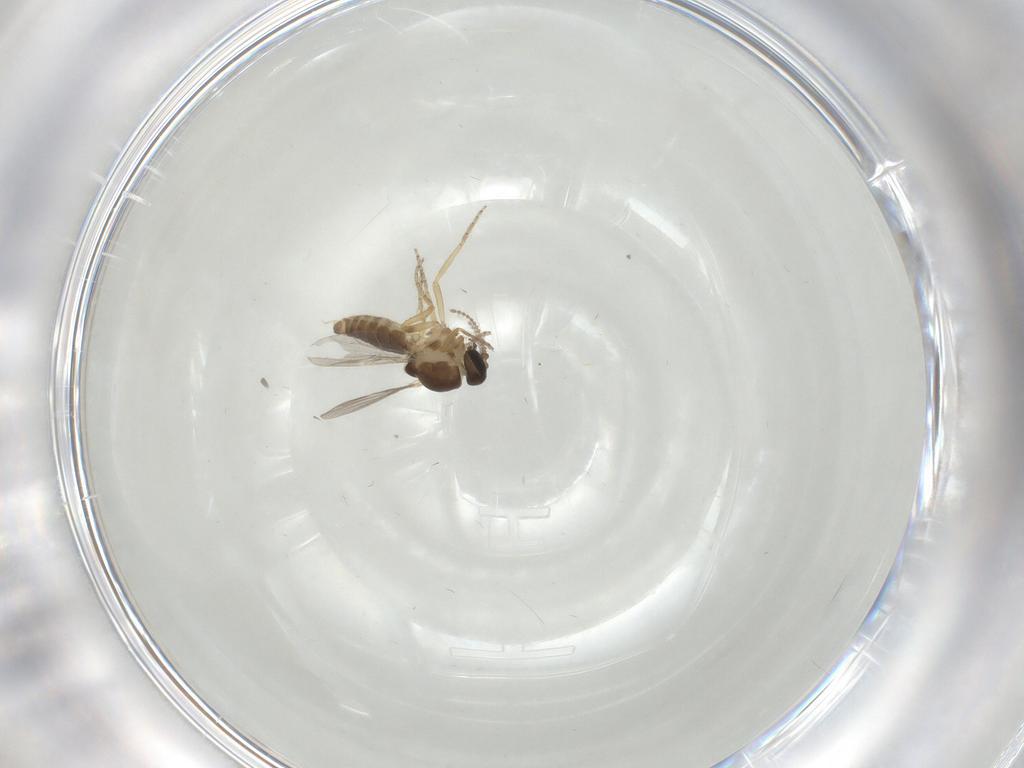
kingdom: Animalia
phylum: Arthropoda
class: Insecta
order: Diptera
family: Ceratopogonidae
